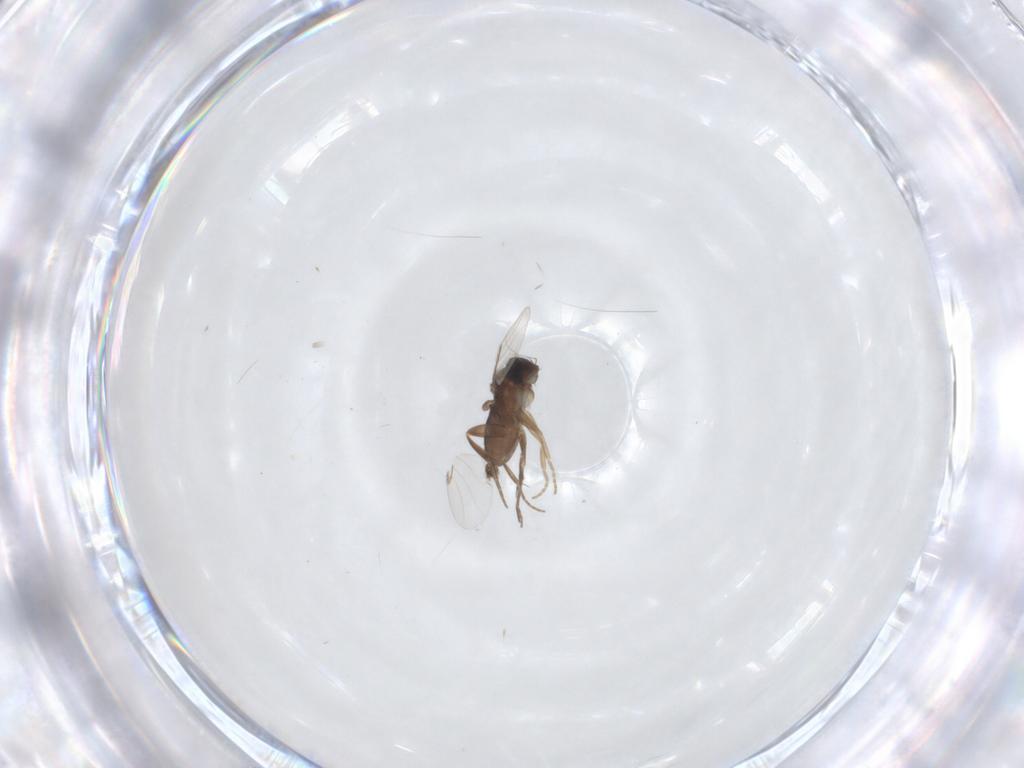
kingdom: Animalia
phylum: Arthropoda
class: Insecta
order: Diptera
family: Phoridae
